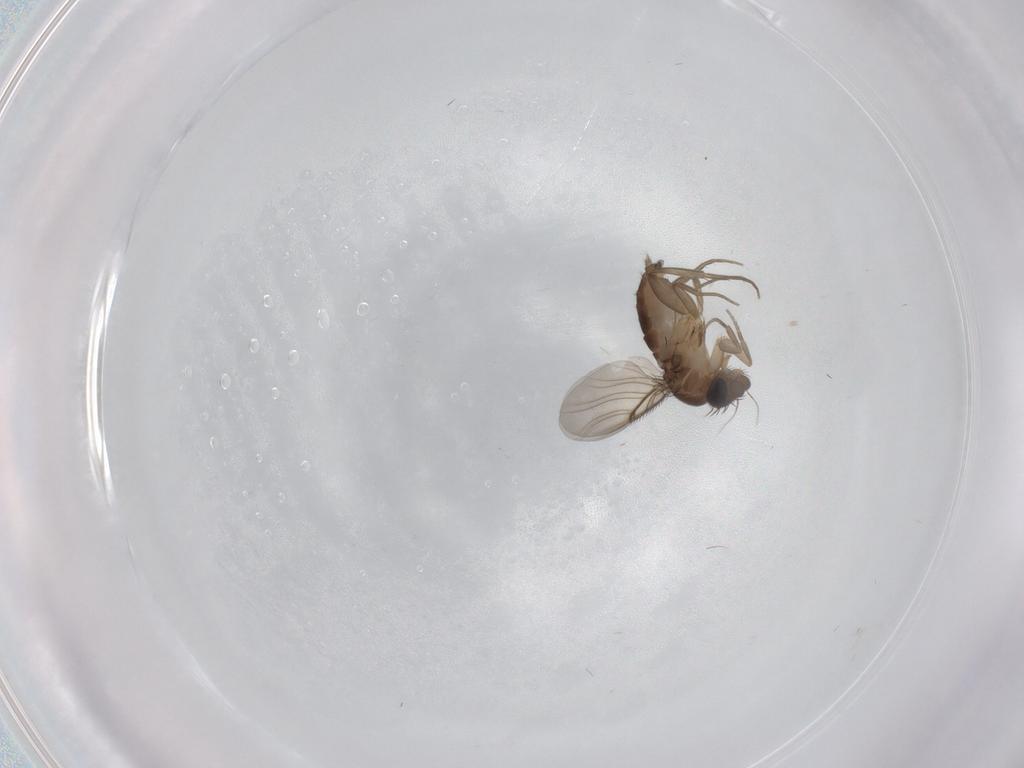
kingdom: Animalia
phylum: Arthropoda
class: Insecta
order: Diptera
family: Phoridae
